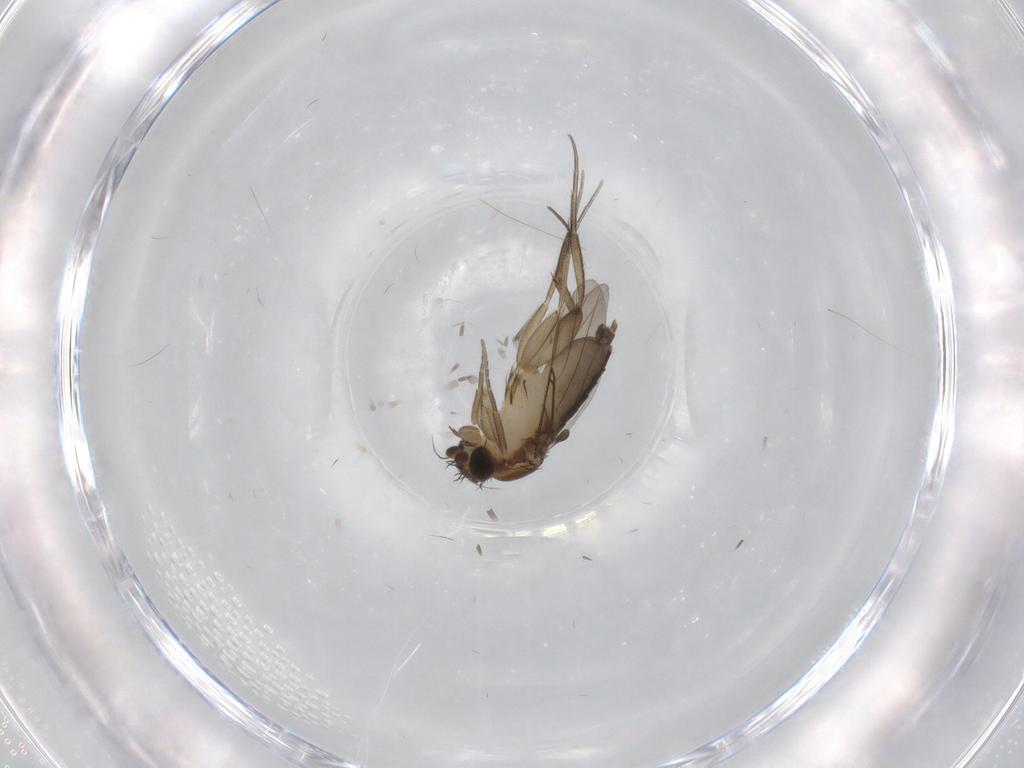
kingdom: Animalia
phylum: Arthropoda
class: Insecta
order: Diptera
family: Phoridae
